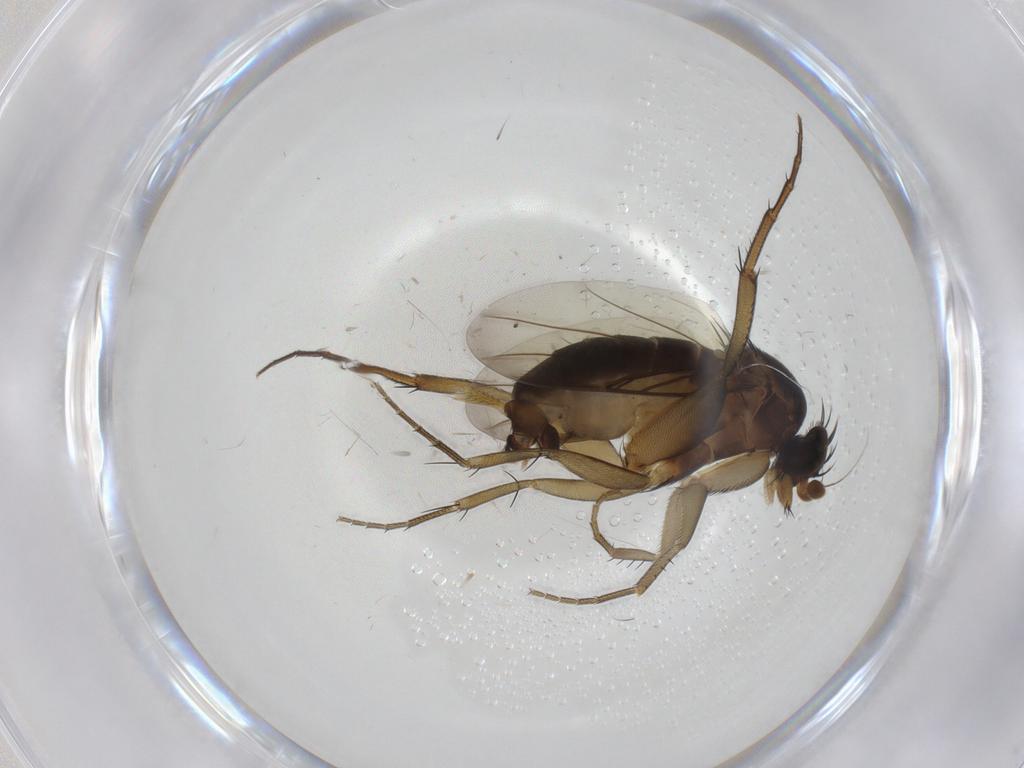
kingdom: Animalia
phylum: Arthropoda
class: Insecta
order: Diptera
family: Phoridae
